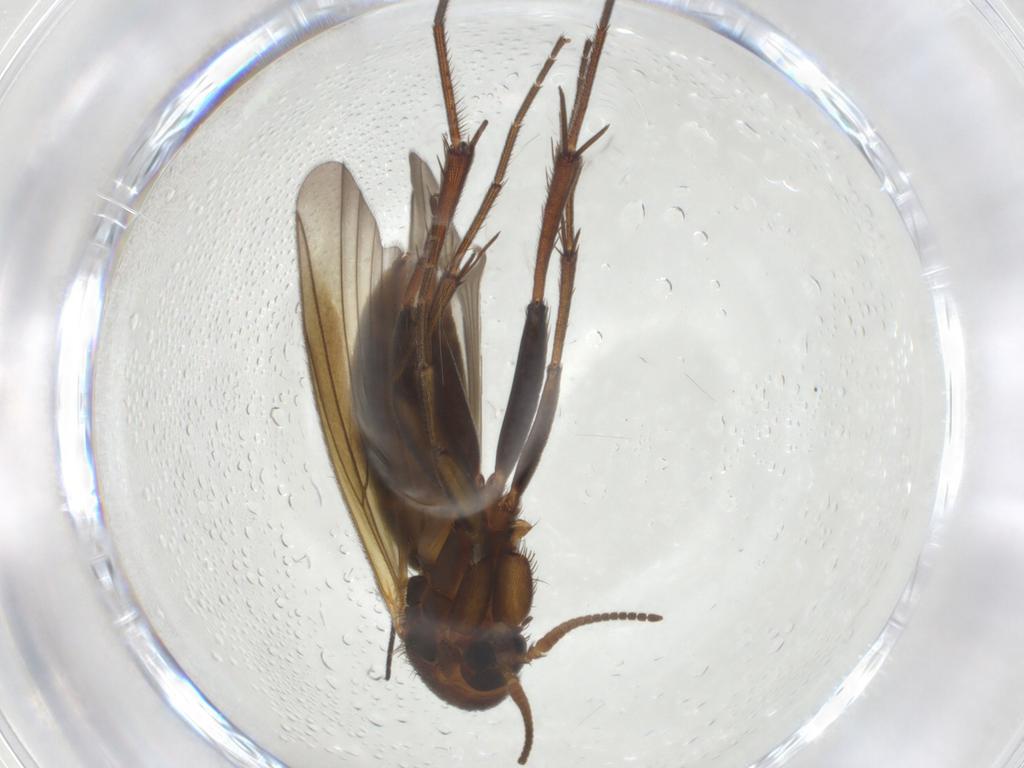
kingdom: Animalia
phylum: Arthropoda
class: Insecta
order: Diptera
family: Sciaridae
